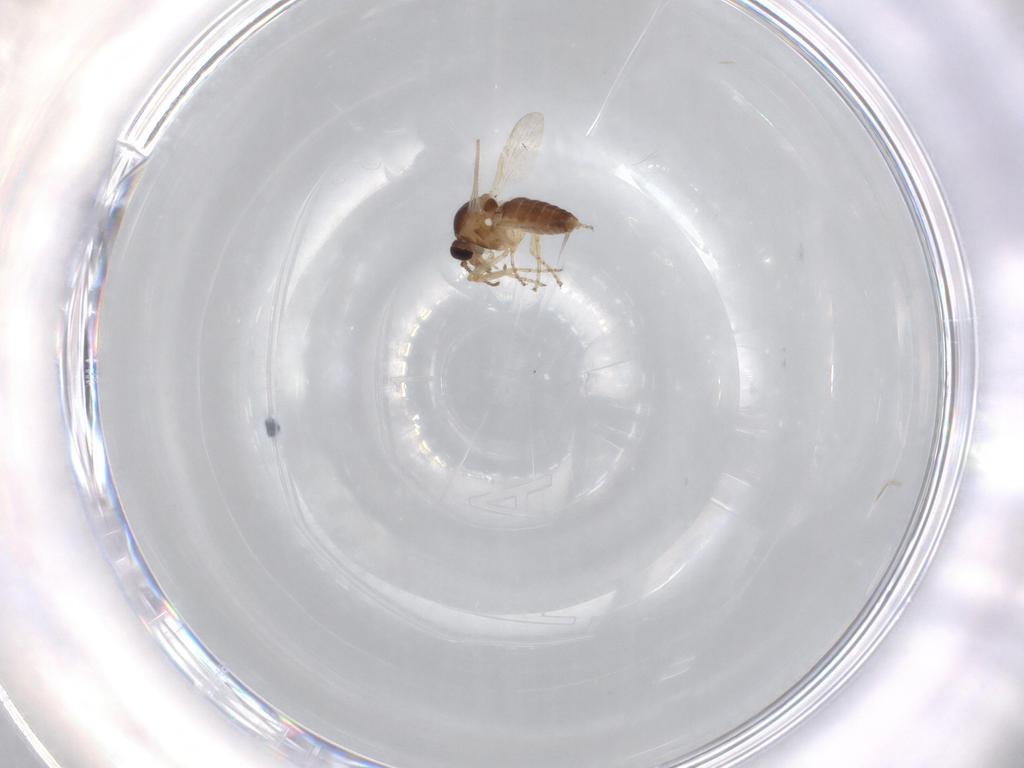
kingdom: Animalia
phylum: Arthropoda
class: Insecta
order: Diptera
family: Ceratopogonidae
